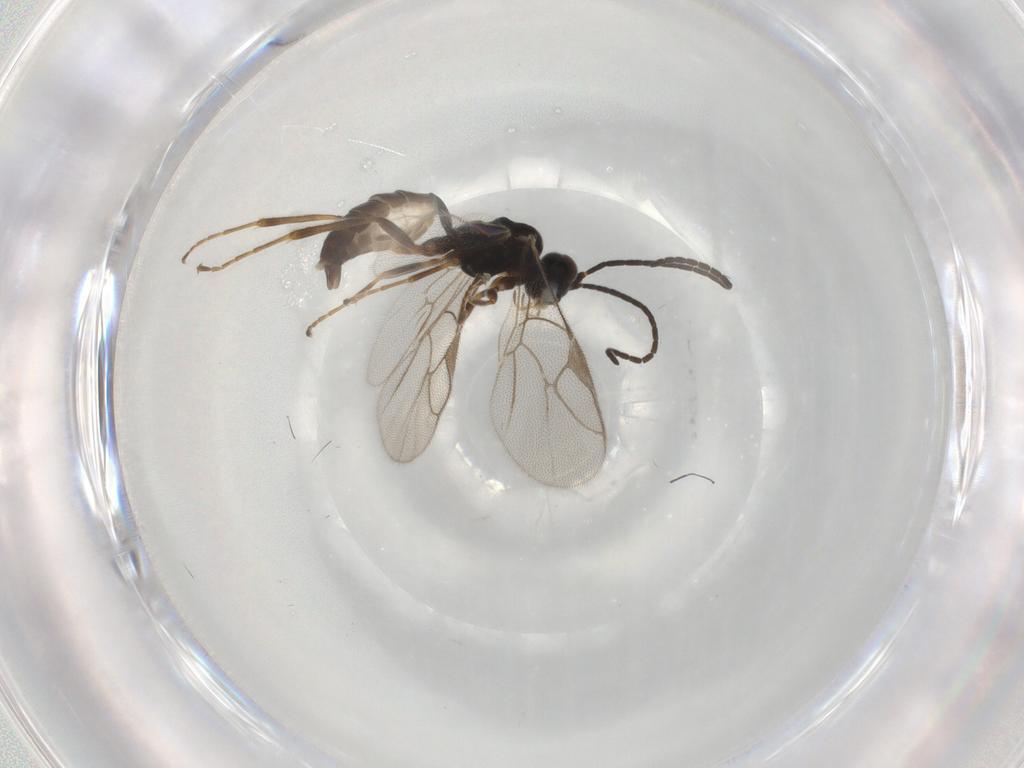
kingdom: Animalia
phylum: Arthropoda
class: Insecta
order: Hymenoptera
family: Ichneumonidae
